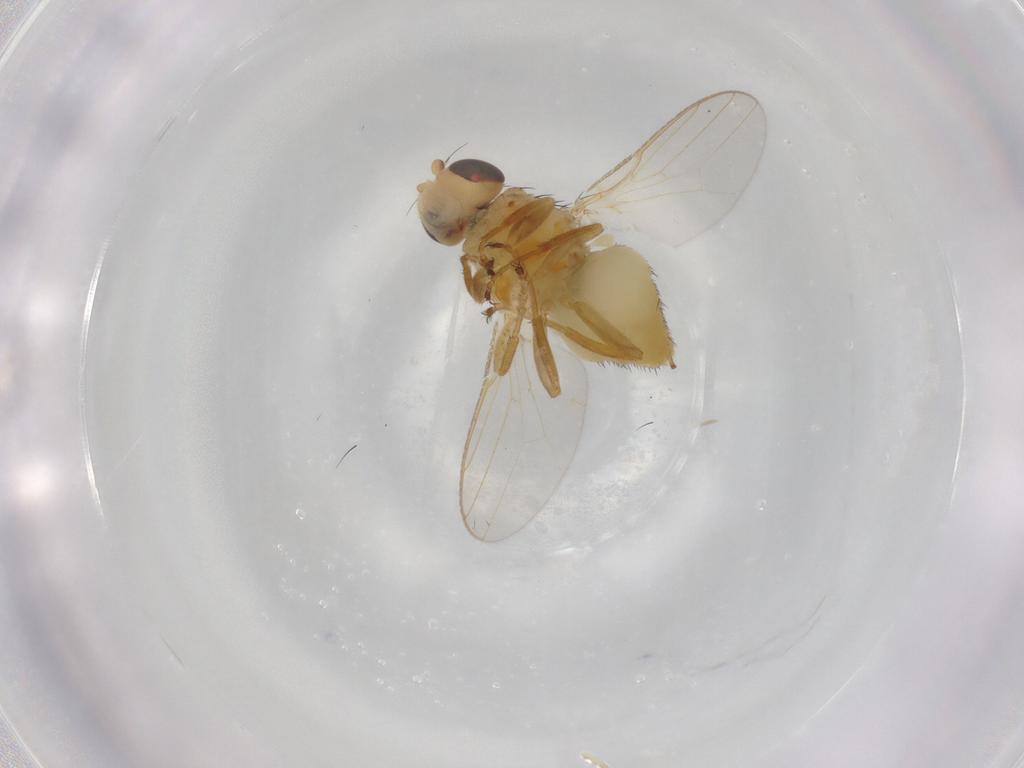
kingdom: Animalia
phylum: Arthropoda
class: Insecta
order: Diptera
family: Chloropidae
